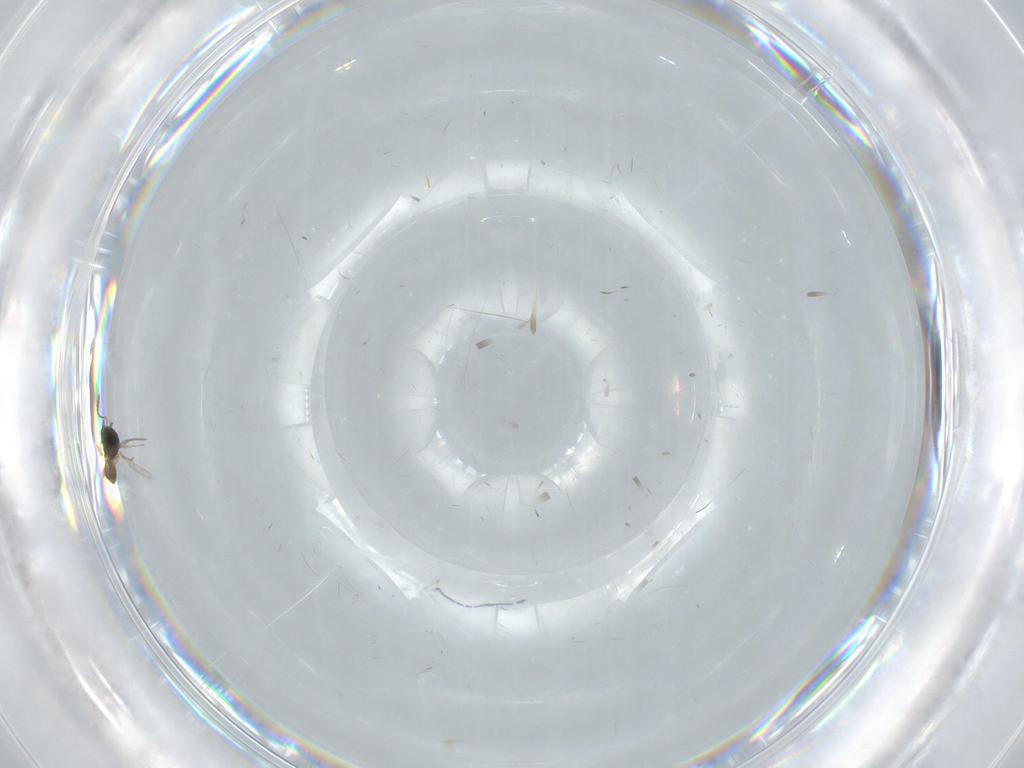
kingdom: Animalia
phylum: Arthropoda
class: Insecta
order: Hymenoptera
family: Scelionidae
